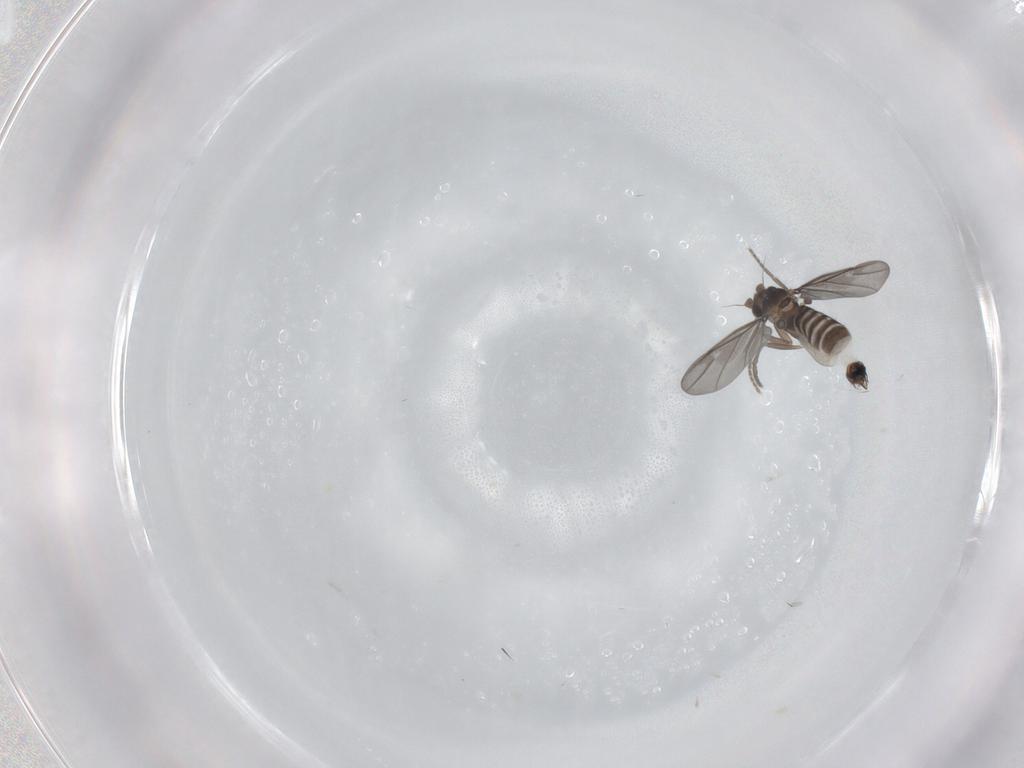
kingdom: Animalia
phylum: Arthropoda
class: Insecta
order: Diptera
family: Phoridae
